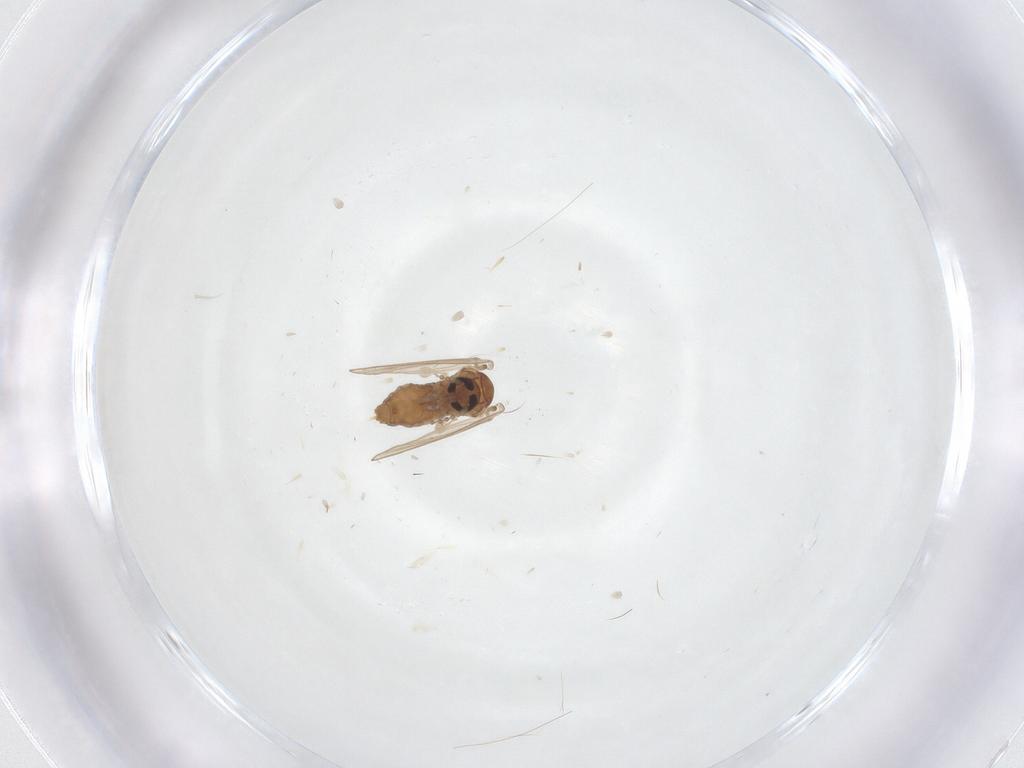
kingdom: Animalia
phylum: Arthropoda
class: Insecta
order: Diptera
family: Psychodidae
